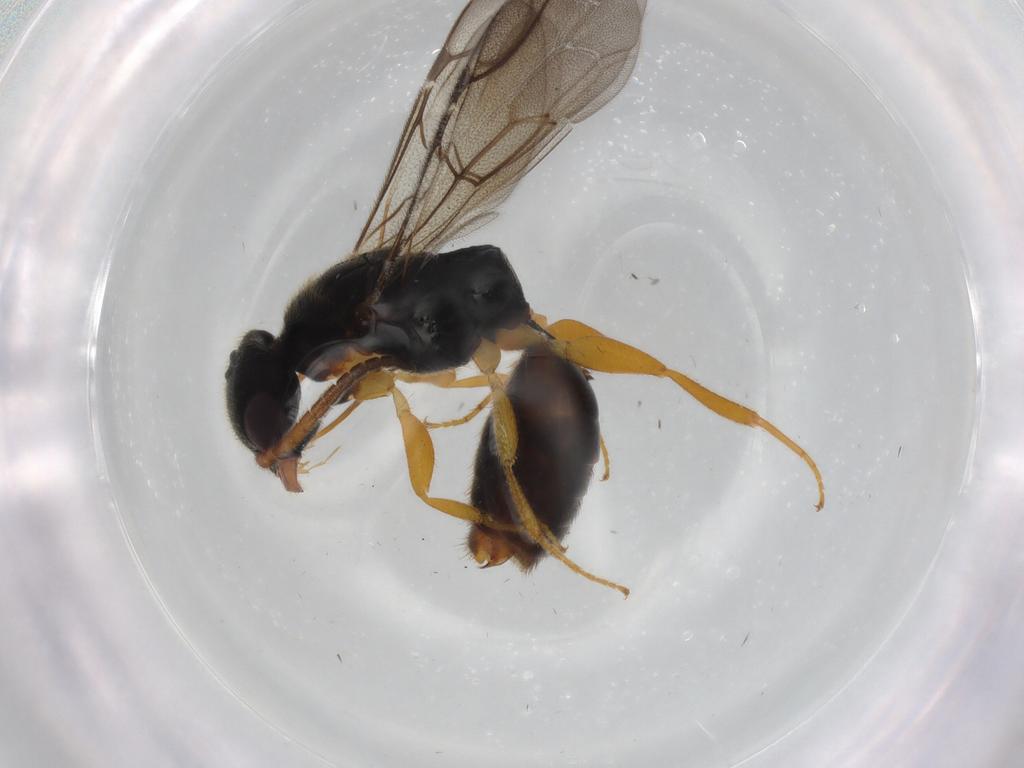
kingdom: Animalia
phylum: Arthropoda
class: Insecta
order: Hymenoptera
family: Bethylidae
